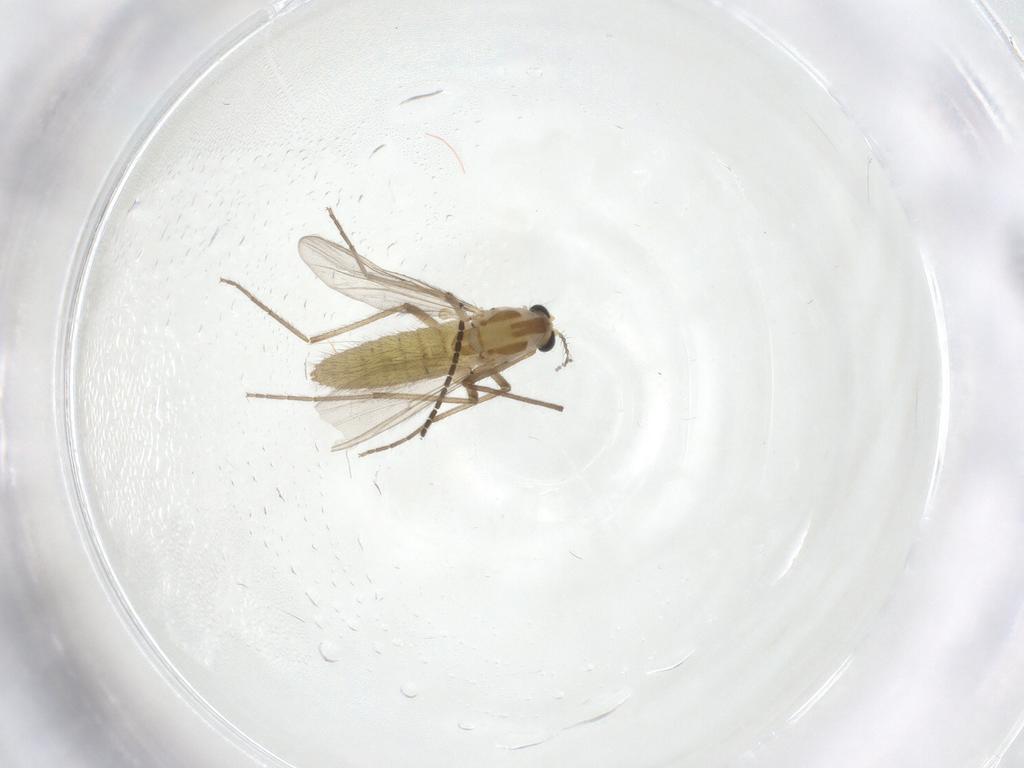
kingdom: Animalia
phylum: Arthropoda
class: Insecta
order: Diptera
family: Chironomidae
